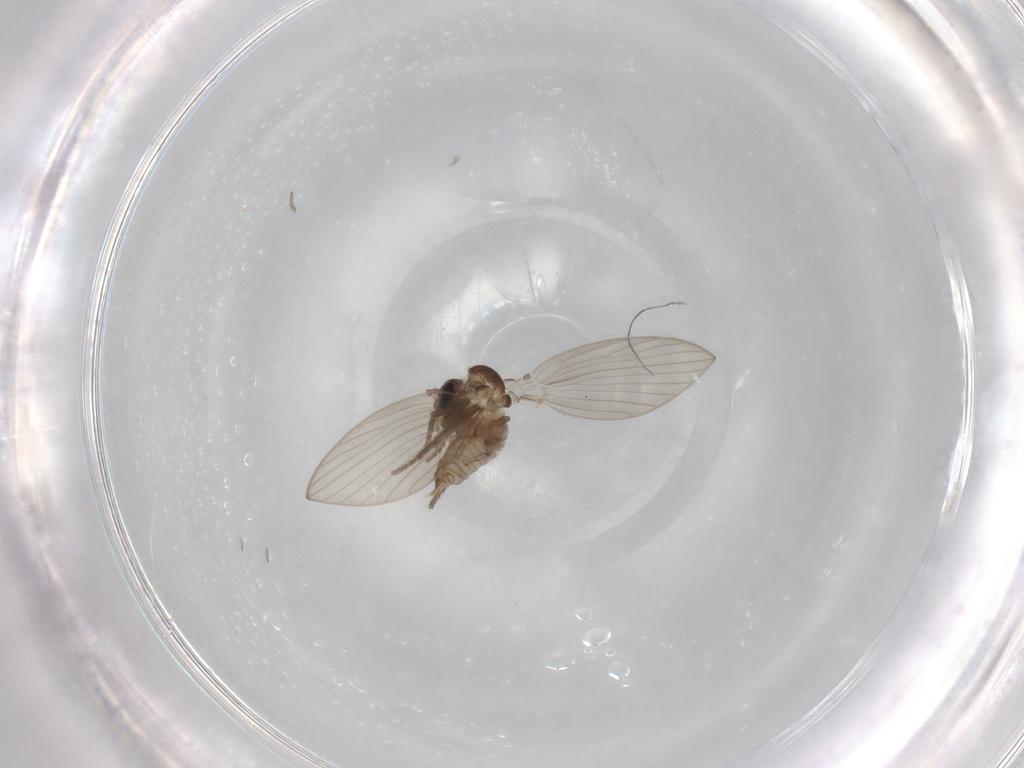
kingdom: Animalia
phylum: Arthropoda
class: Insecta
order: Diptera
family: Psychodidae
